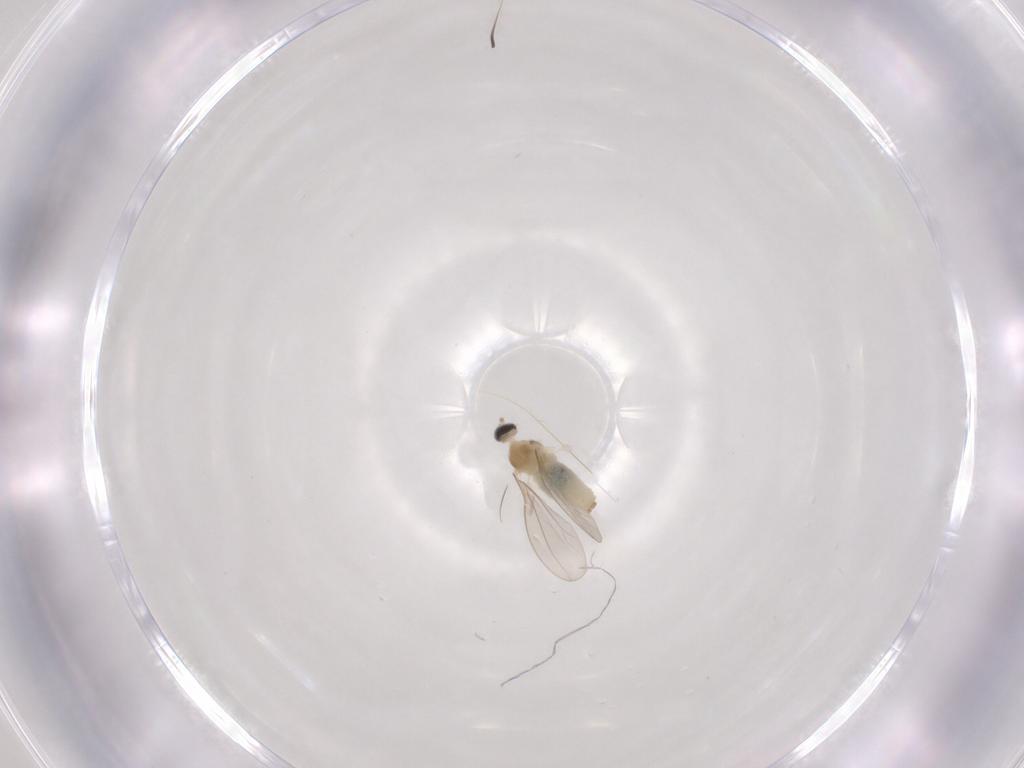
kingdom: Animalia
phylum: Arthropoda
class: Insecta
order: Diptera
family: Cecidomyiidae
